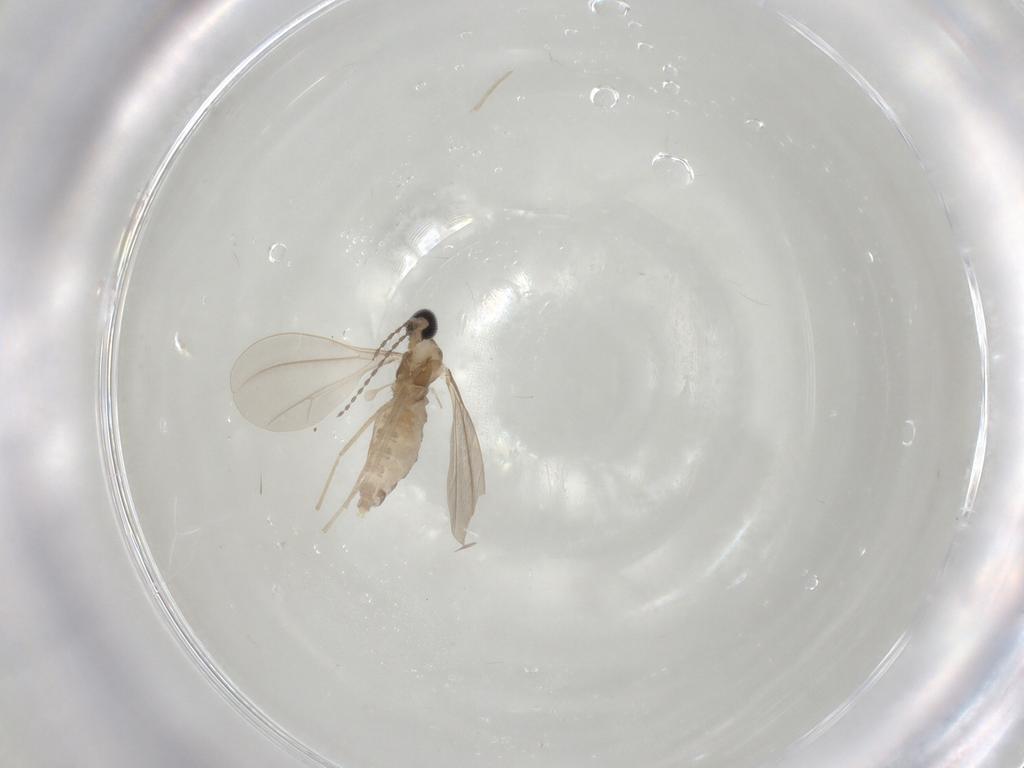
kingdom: Animalia
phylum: Arthropoda
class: Insecta
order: Diptera
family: Cecidomyiidae
